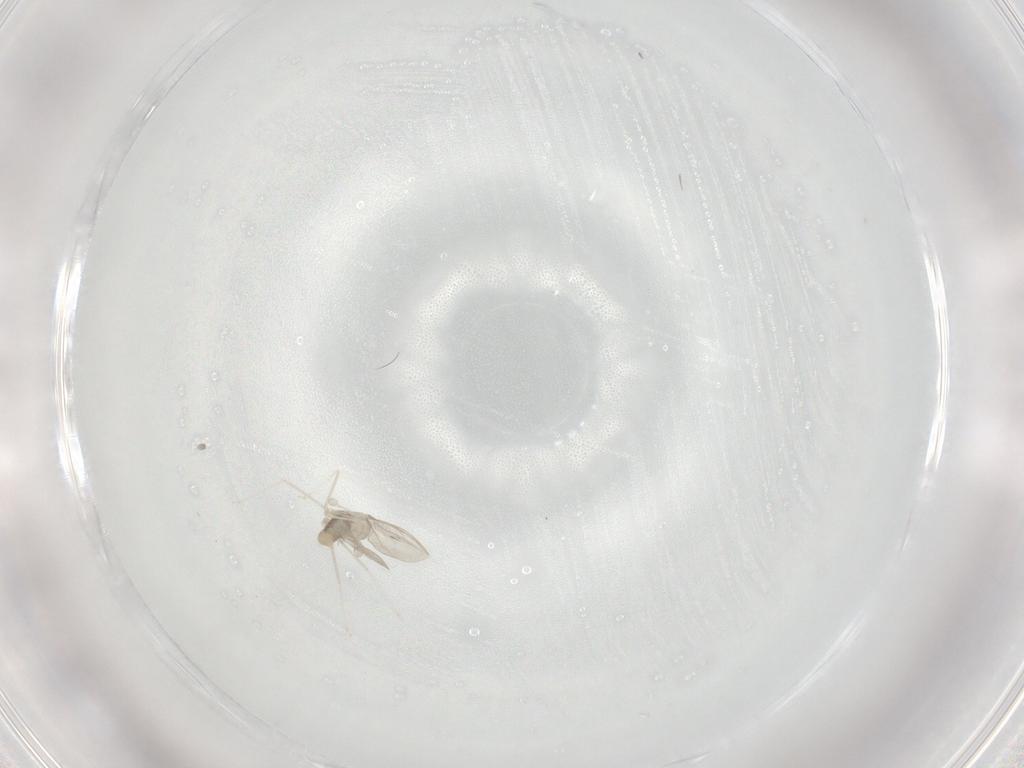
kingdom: Animalia
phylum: Arthropoda
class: Insecta
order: Diptera
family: Cecidomyiidae
